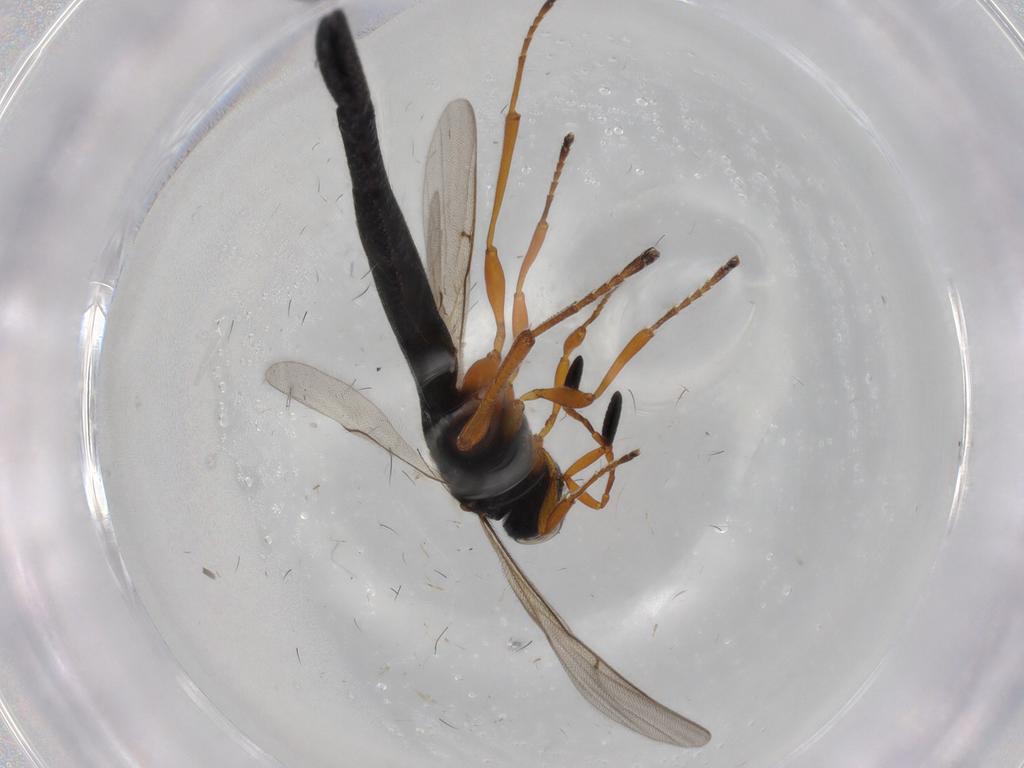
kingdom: Animalia
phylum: Arthropoda
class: Insecta
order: Hymenoptera
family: Scelionidae
